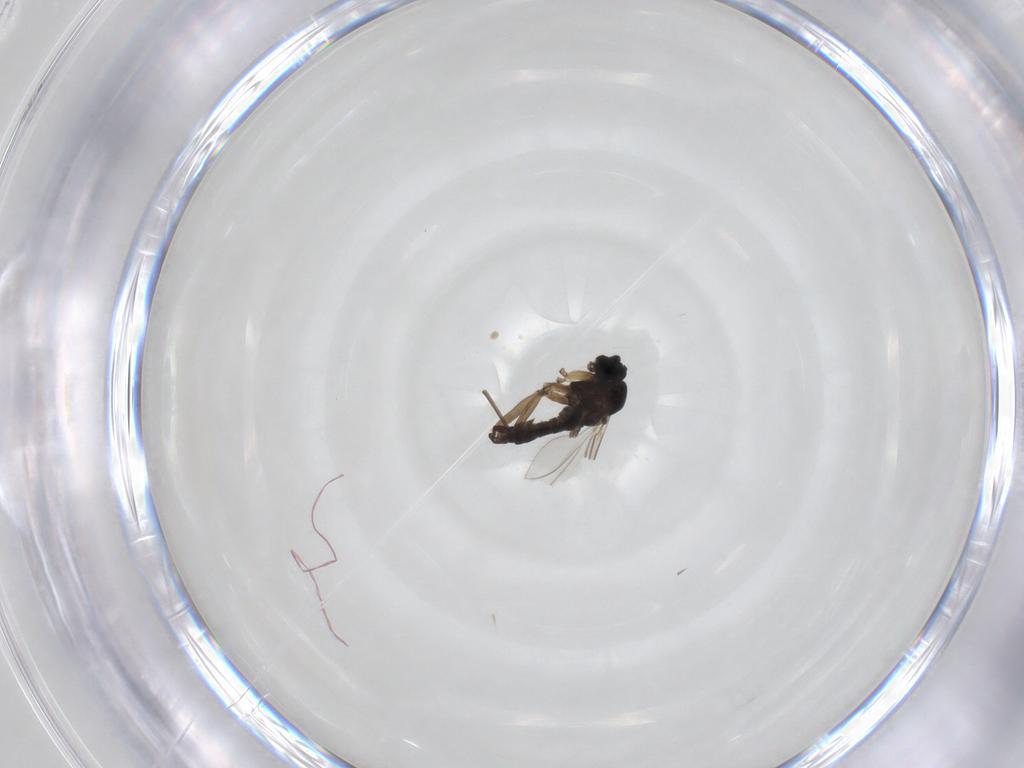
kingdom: Animalia
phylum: Arthropoda
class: Insecta
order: Diptera
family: Sciaridae
